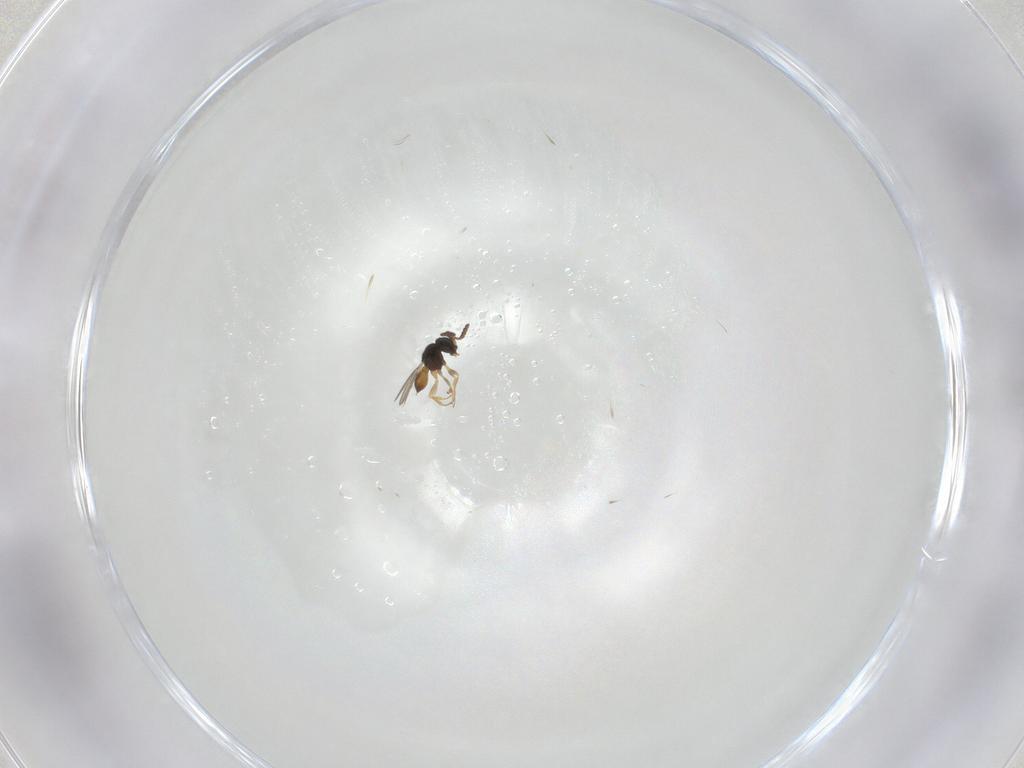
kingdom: Animalia
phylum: Arthropoda
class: Insecta
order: Hymenoptera
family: Scelionidae
